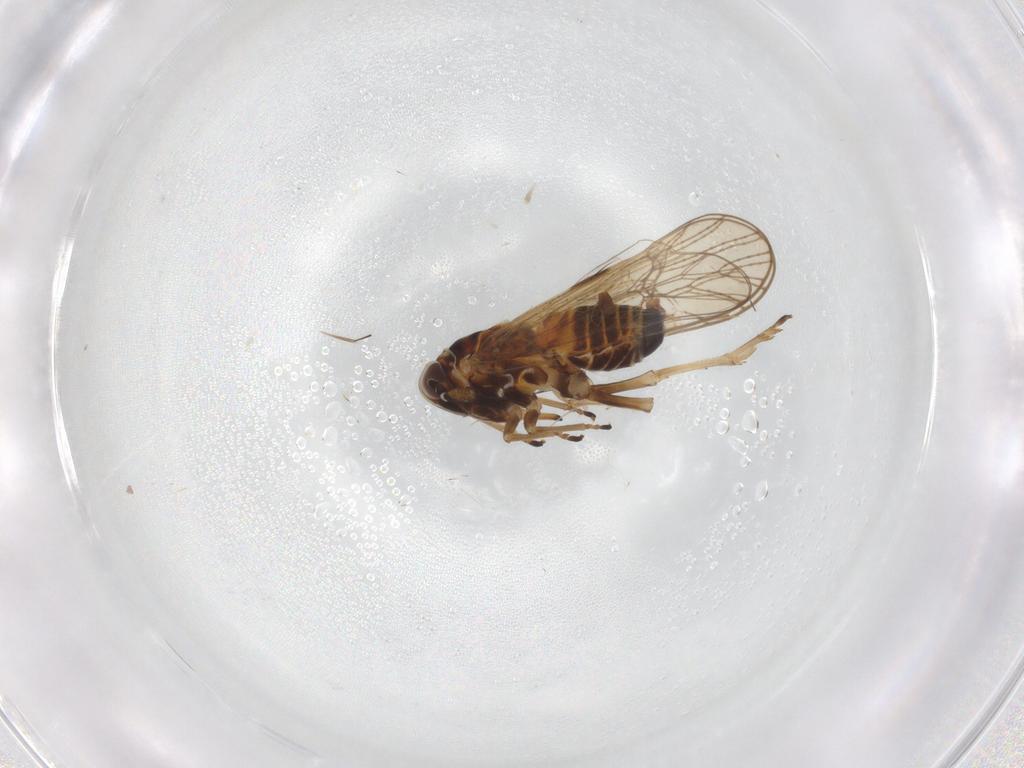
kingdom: Animalia
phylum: Arthropoda
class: Insecta
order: Hemiptera
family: Delphacidae
